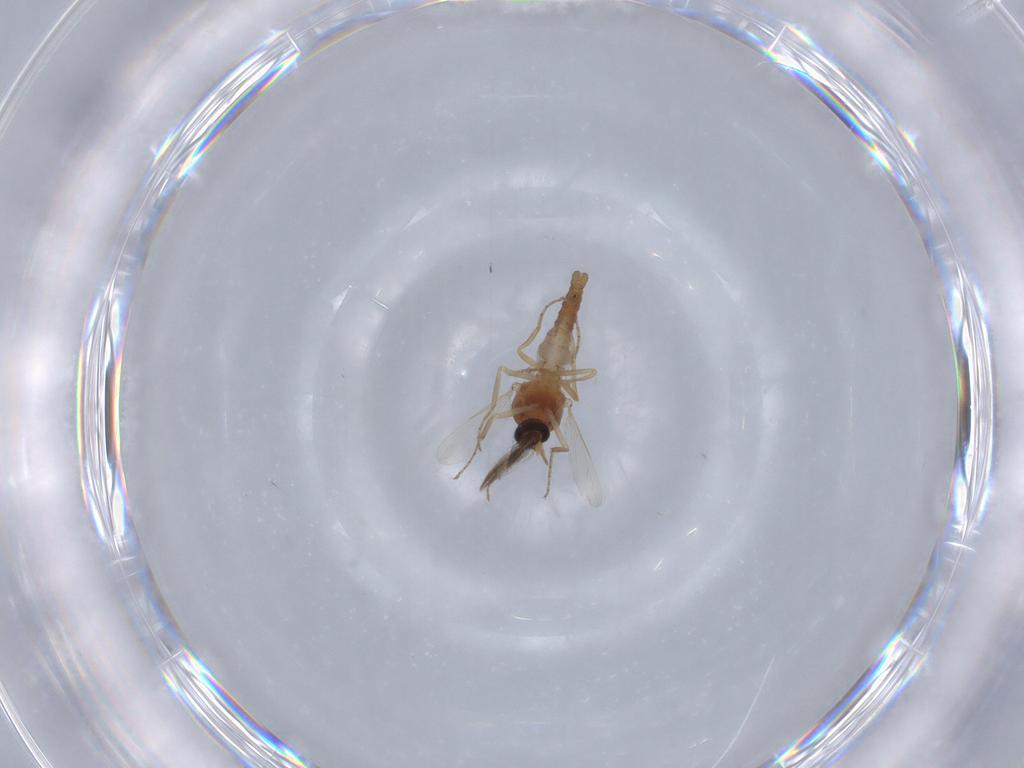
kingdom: Animalia
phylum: Arthropoda
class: Insecta
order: Diptera
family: Ceratopogonidae
